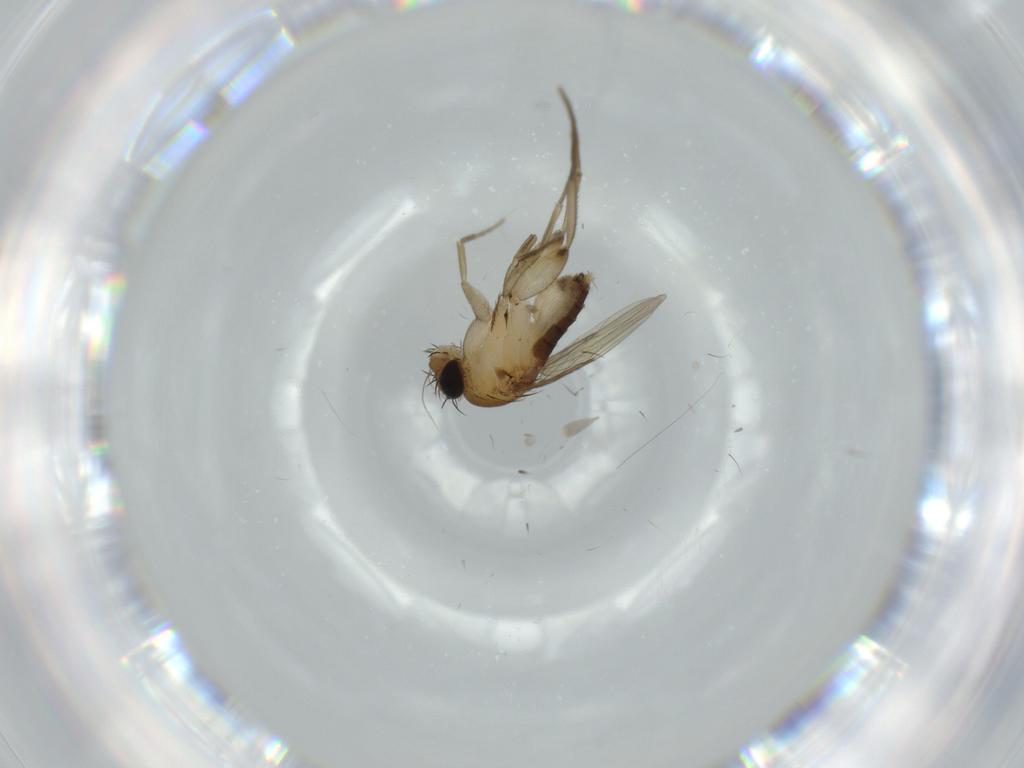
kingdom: Animalia
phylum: Arthropoda
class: Insecta
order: Diptera
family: Phoridae
